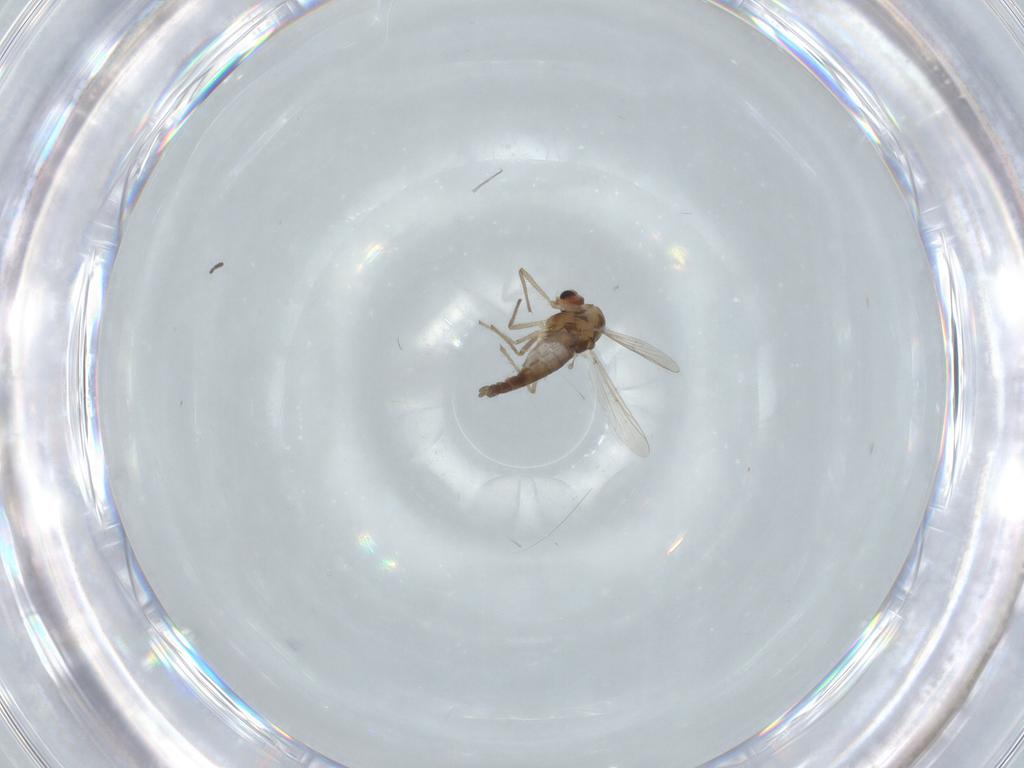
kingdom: Animalia
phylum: Arthropoda
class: Insecta
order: Diptera
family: Chironomidae
